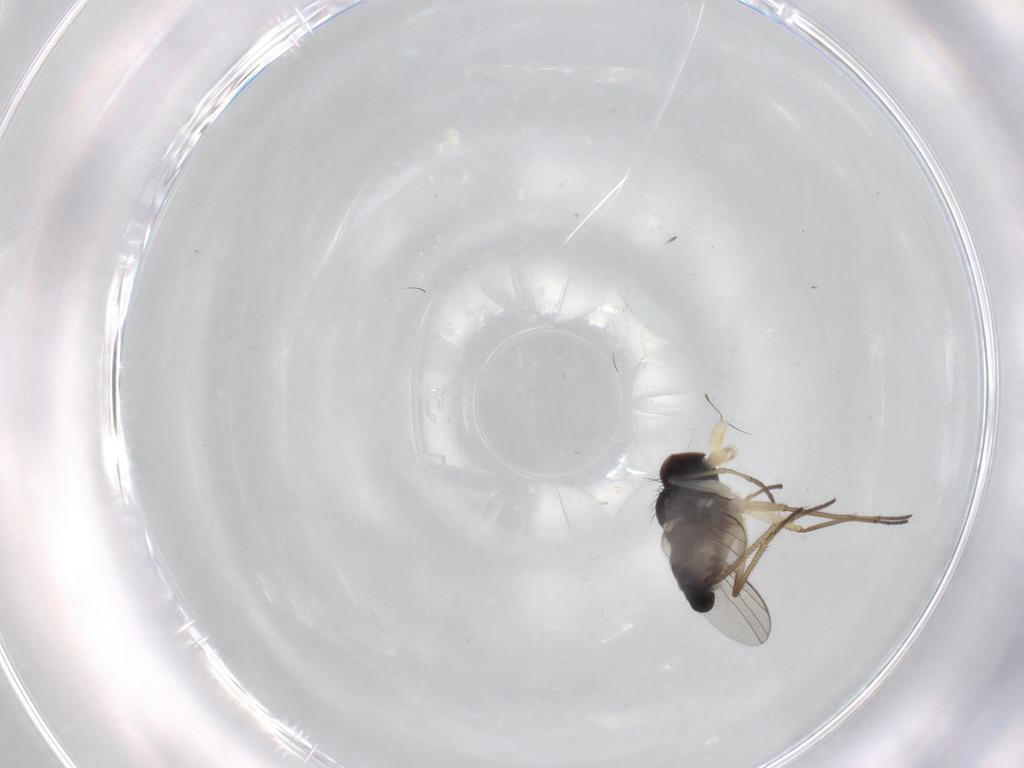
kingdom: Animalia
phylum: Arthropoda
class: Insecta
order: Diptera
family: Dolichopodidae
